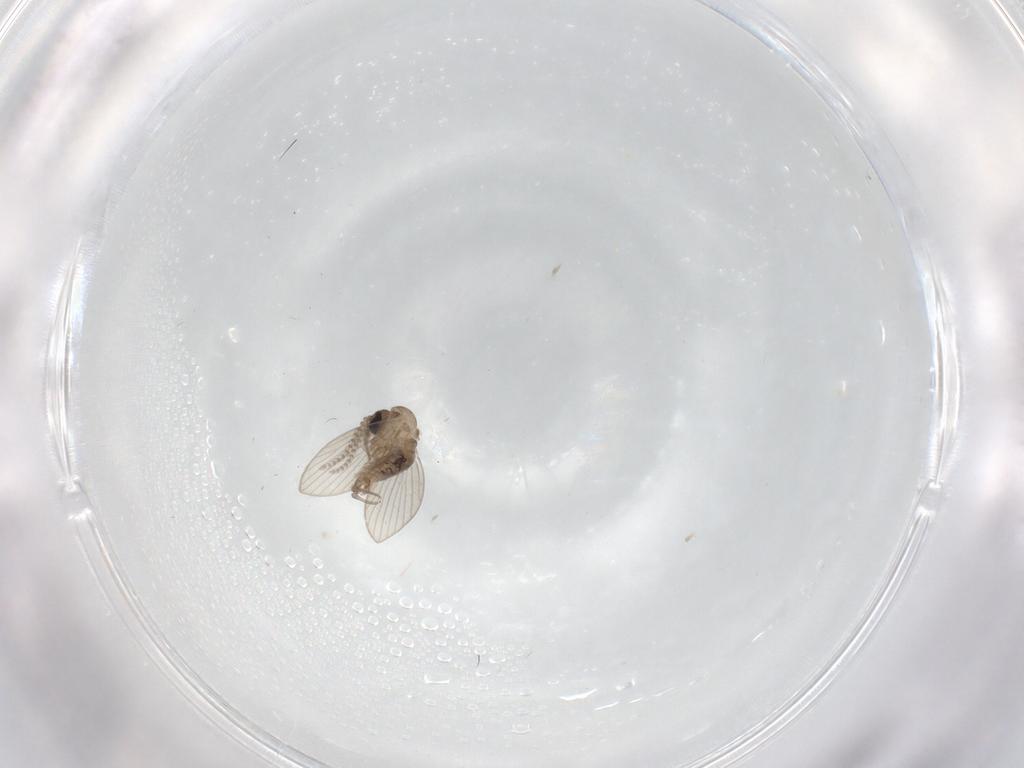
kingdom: Animalia
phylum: Arthropoda
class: Insecta
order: Diptera
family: Psychodidae
